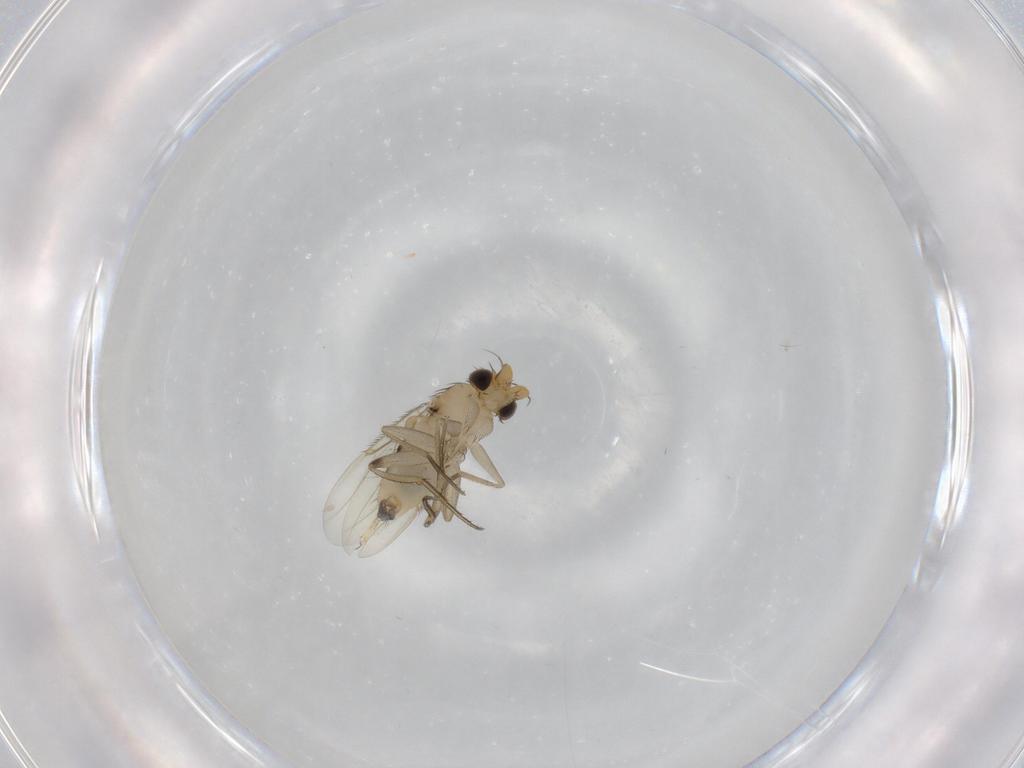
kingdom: Animalia
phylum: Arthropoda
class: Insecta
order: Diptera
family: Phoridae
